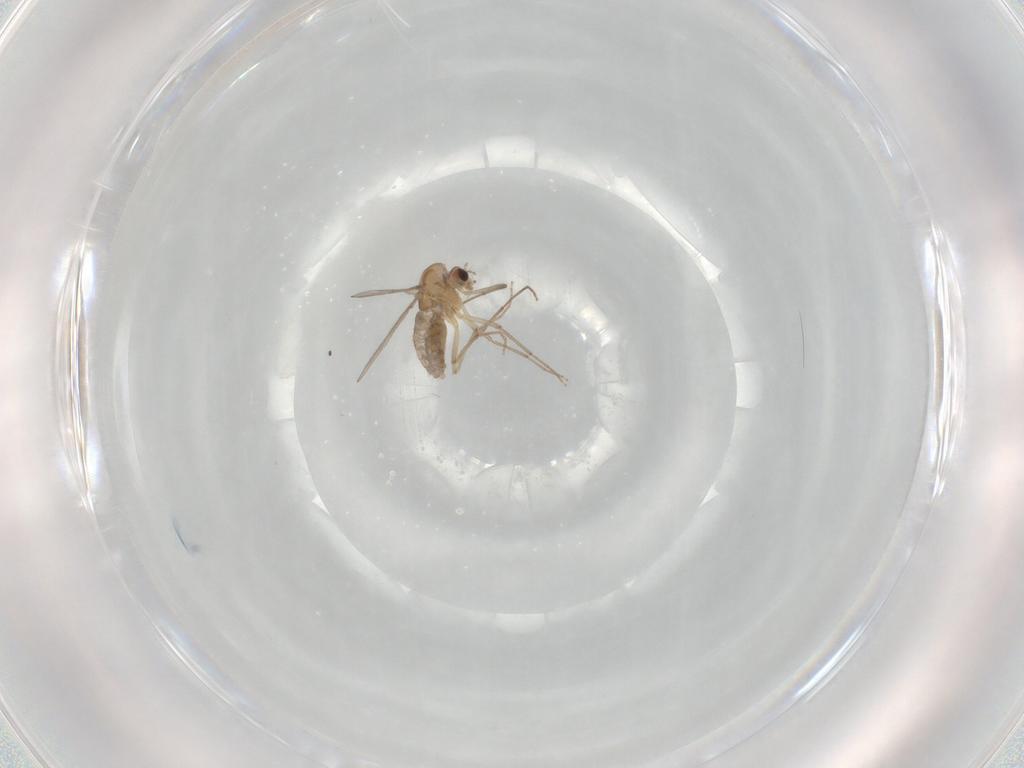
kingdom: Animalia
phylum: Arthropoda
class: Insecta
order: Diptera
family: Chironomidae
